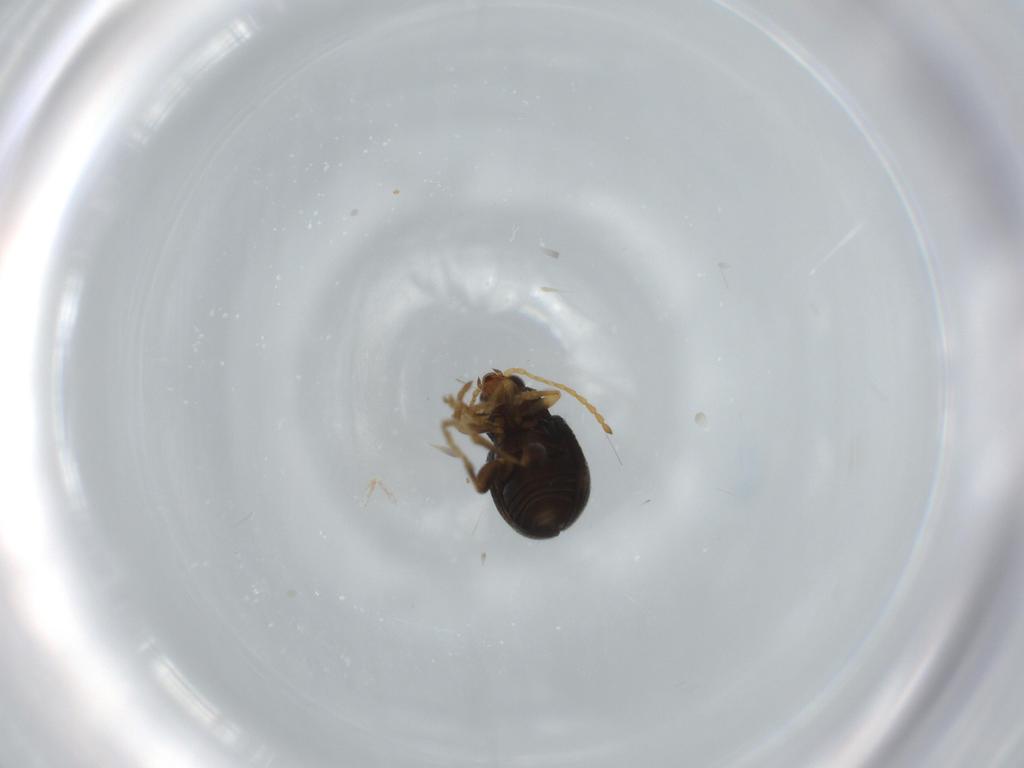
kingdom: Animalia
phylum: Arthropoda
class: Insecta
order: Coleoptera
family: Chrysomelidae
